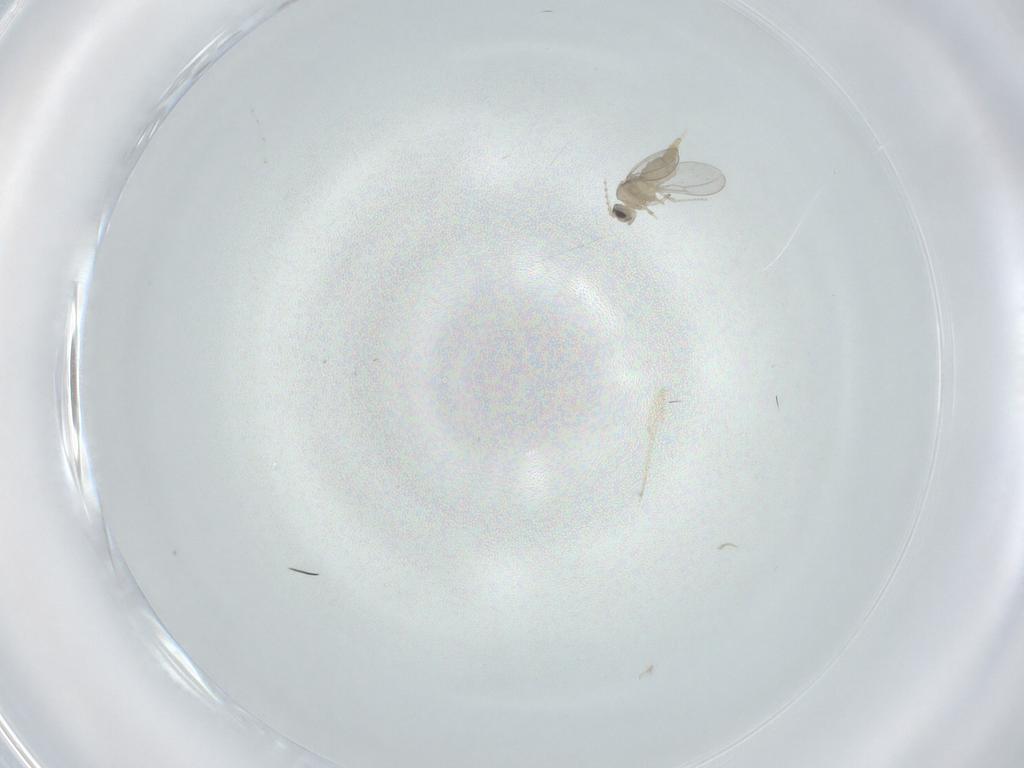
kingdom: Animalia
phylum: Arthropoda
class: Insecta
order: Diptera
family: Cecidomyiidae
